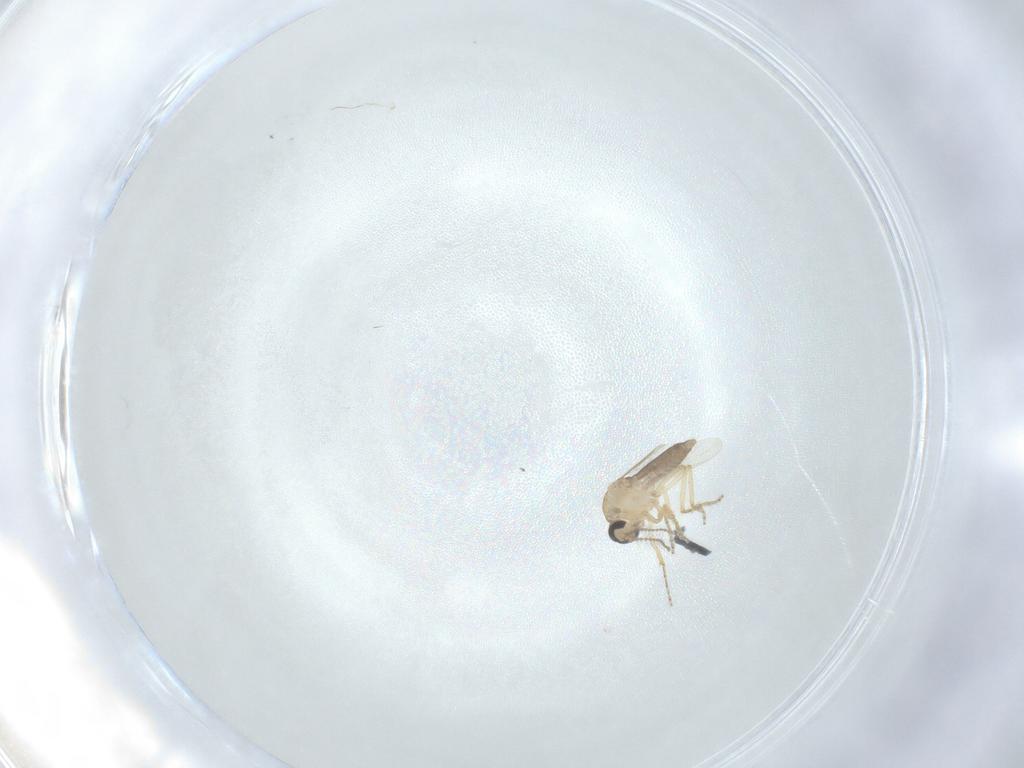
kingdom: Animalia
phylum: Arthropoda
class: Insecta
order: Diptera
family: Ceratopogonidae
